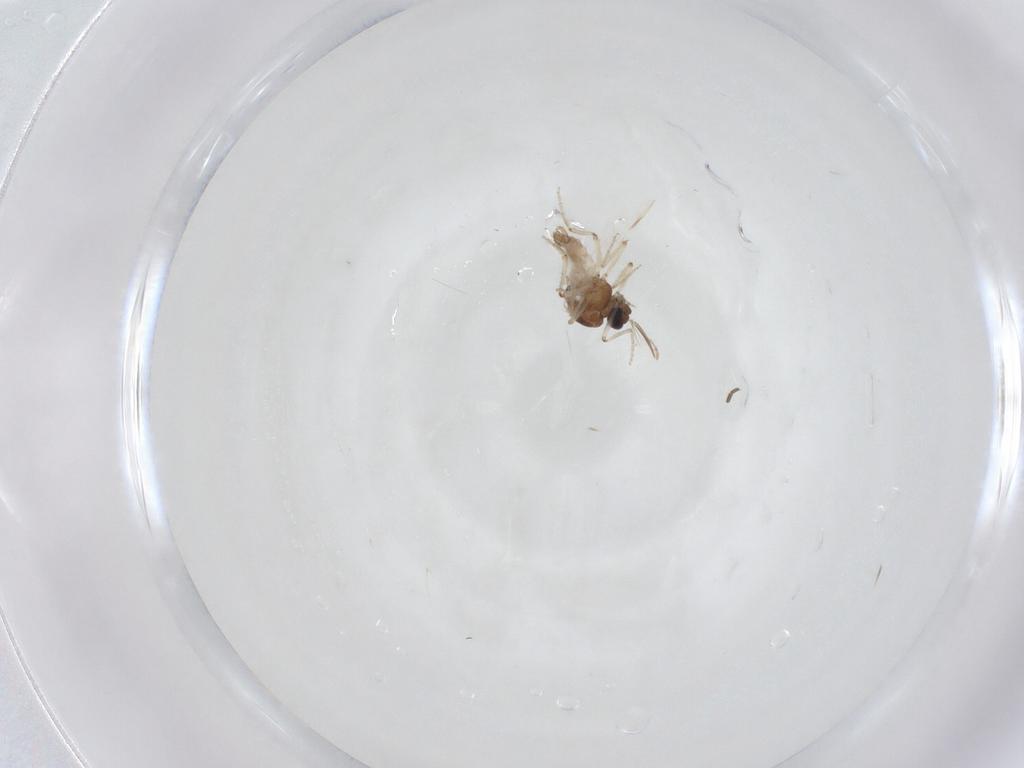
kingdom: Animalia
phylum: Arthropoda
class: Insecta
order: Diptera
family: Ceratopogonidae
